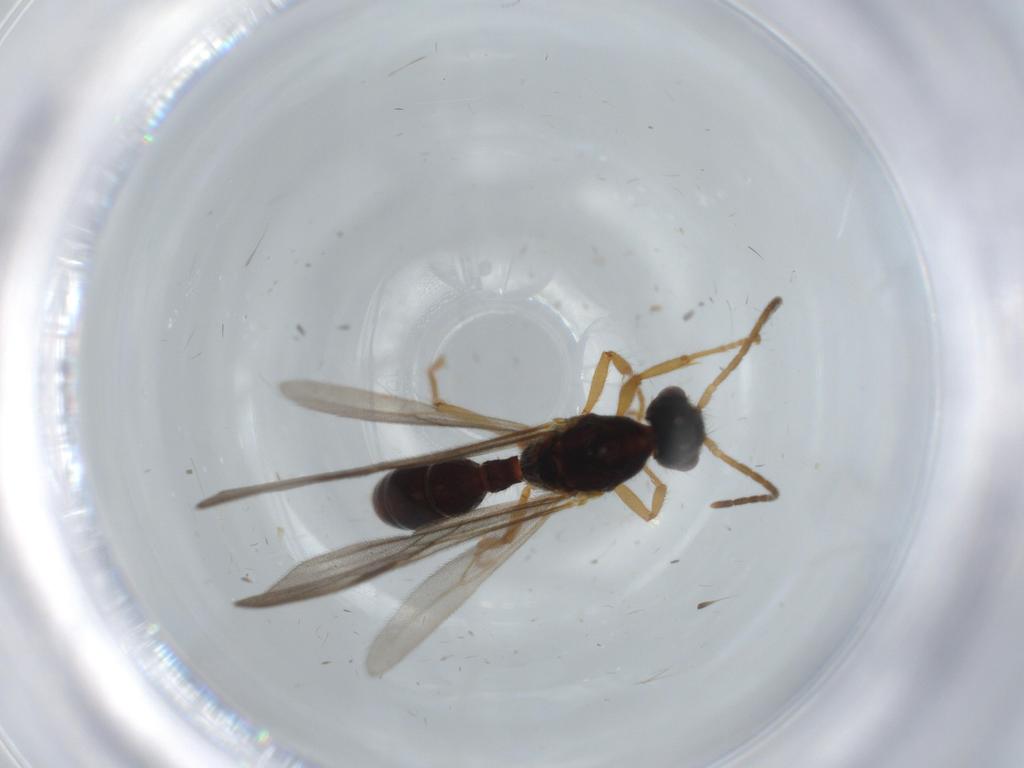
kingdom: Animalia
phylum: Arthropoda
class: Insecta
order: Hymenoptera
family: Formicidae
